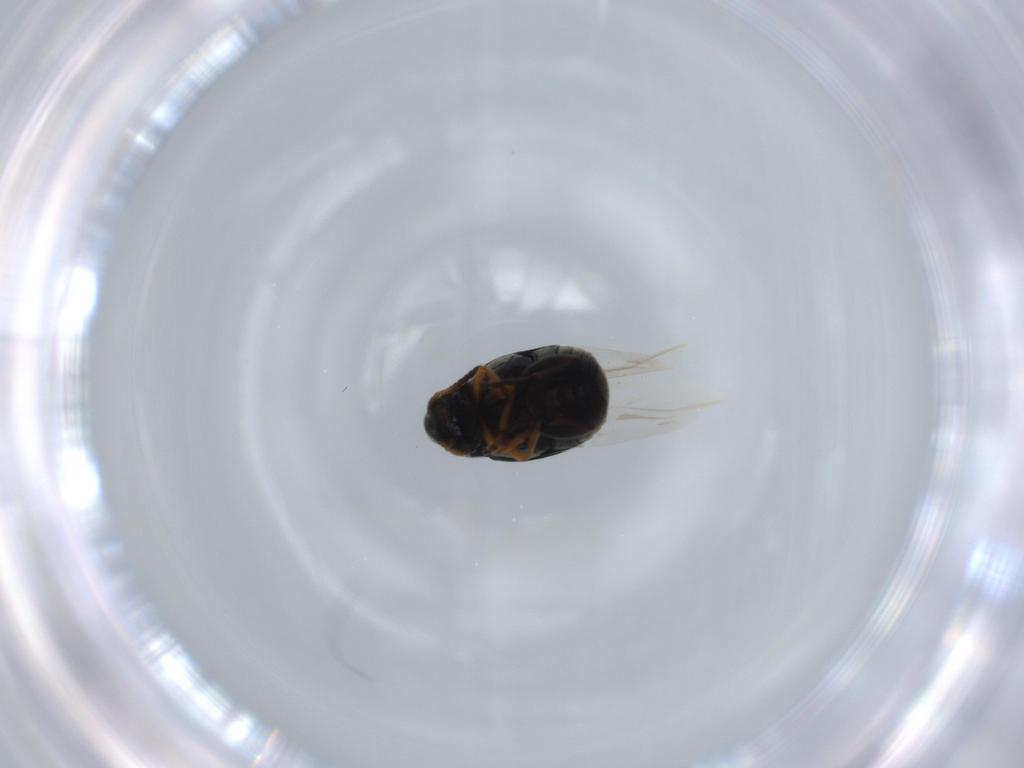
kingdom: Animalia
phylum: Arthropoda
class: Insecta
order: Coleoptera
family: Chrysomelidae
